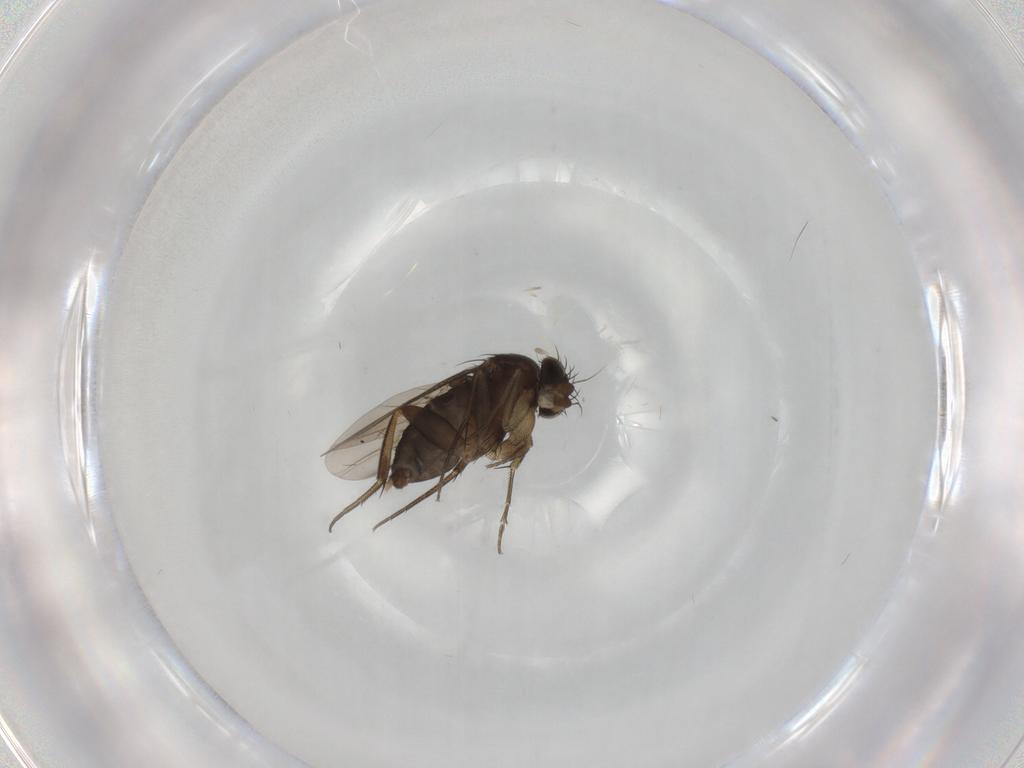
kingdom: Animalia
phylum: Arthropoda
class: Insecta
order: Diptera
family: Phoridae
